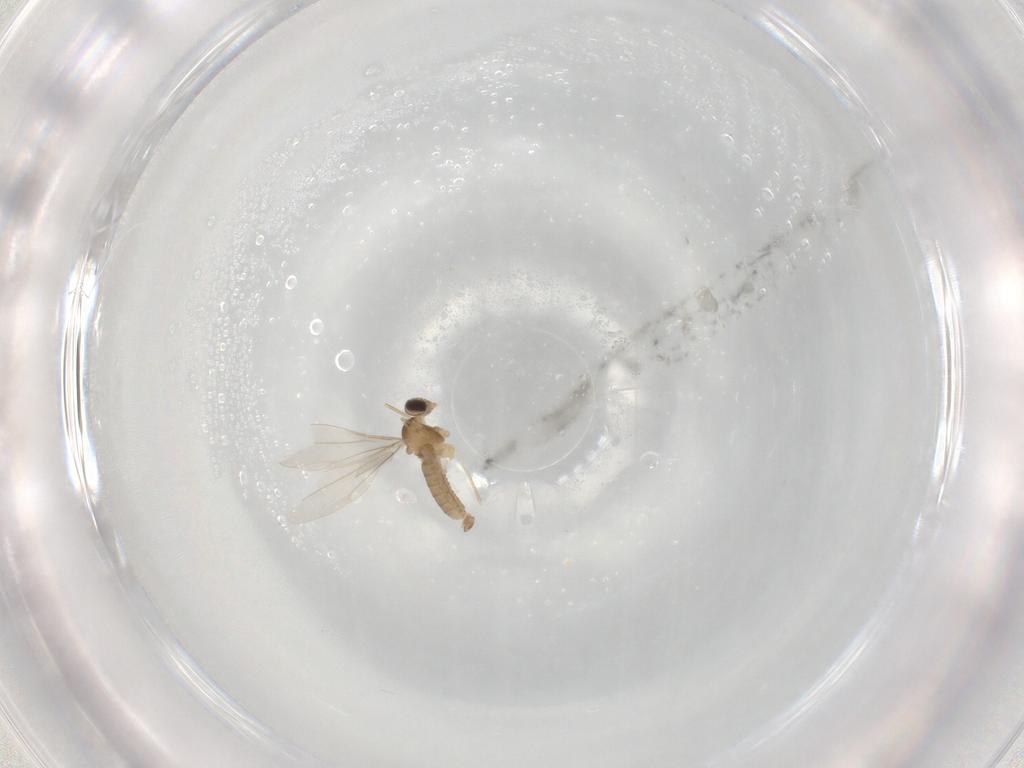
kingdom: Animalia
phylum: Arthropoda
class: Insecta
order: Diptera
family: Cecidomyiidae
